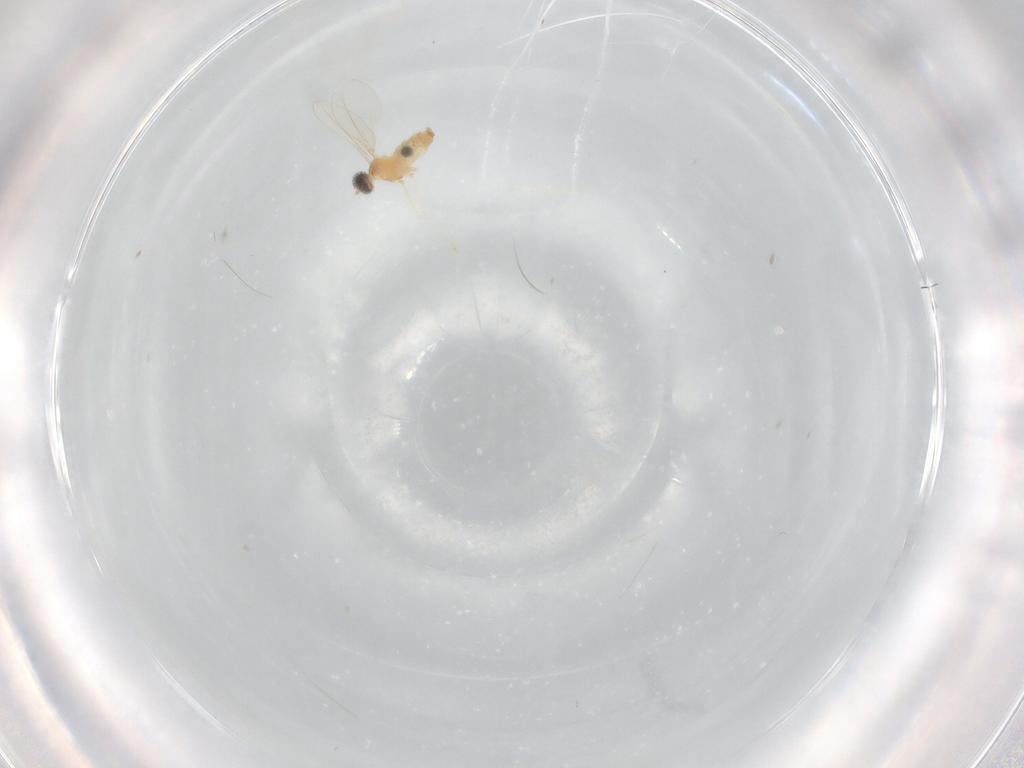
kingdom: Animalia
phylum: Arthropoda
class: Insecta
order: Diptera
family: Cecidomyiidae
